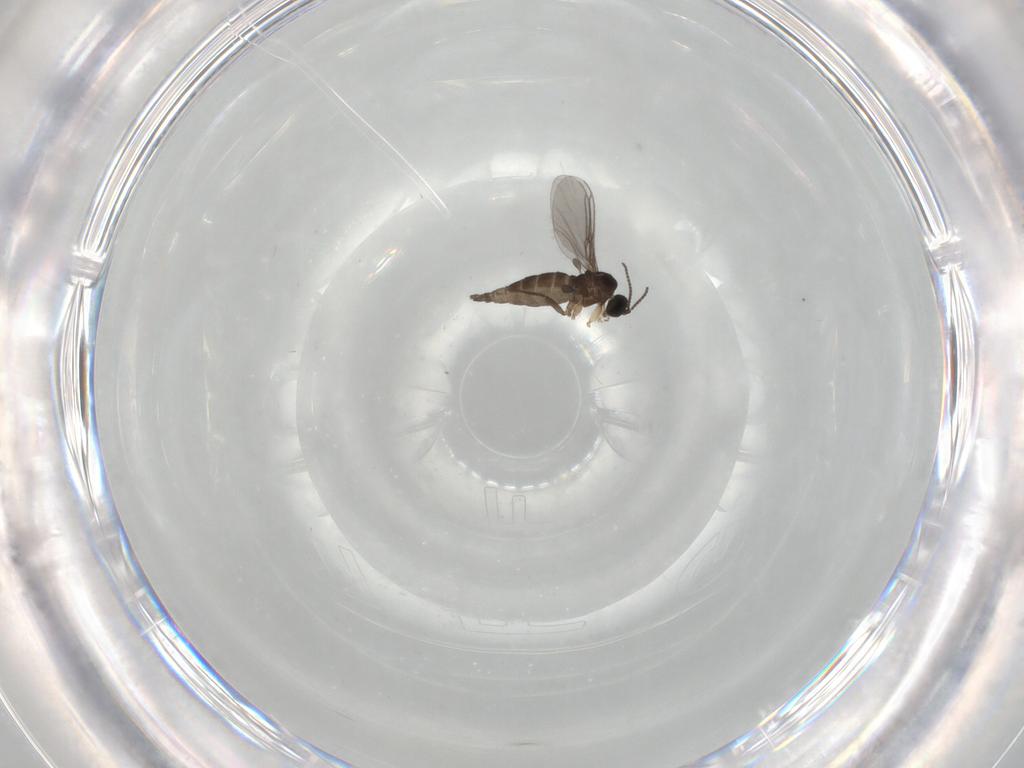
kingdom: Animalia
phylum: Arthropoda
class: Insecta
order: Diptera
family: Sciaridae
